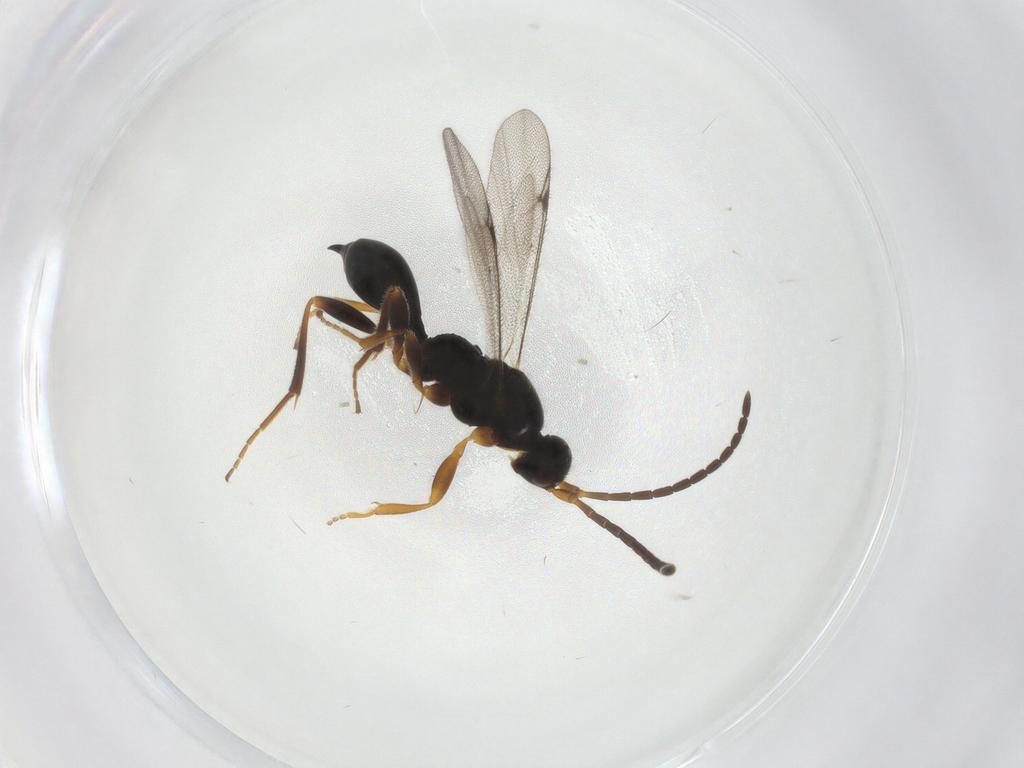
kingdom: Animalia
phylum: Arthropoda
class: Insecta
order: Hymenoptera
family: Proctotrupidae
